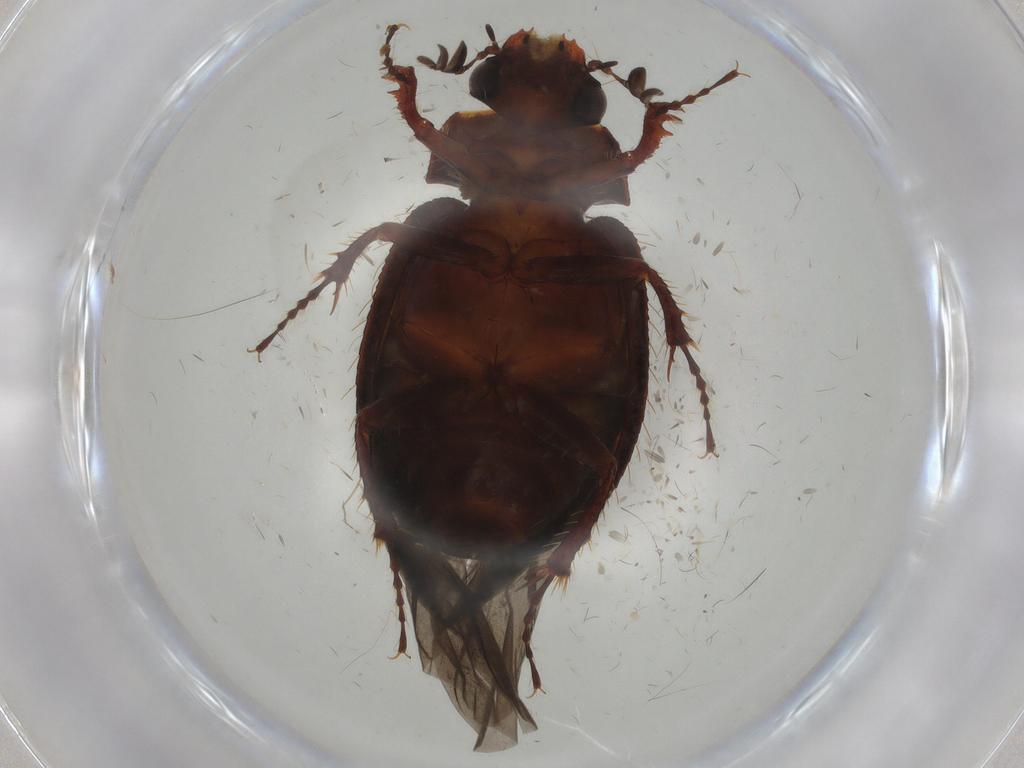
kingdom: Animalia
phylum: Arthropoda
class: Insecta
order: Coleoptera
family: Hybosoridae
